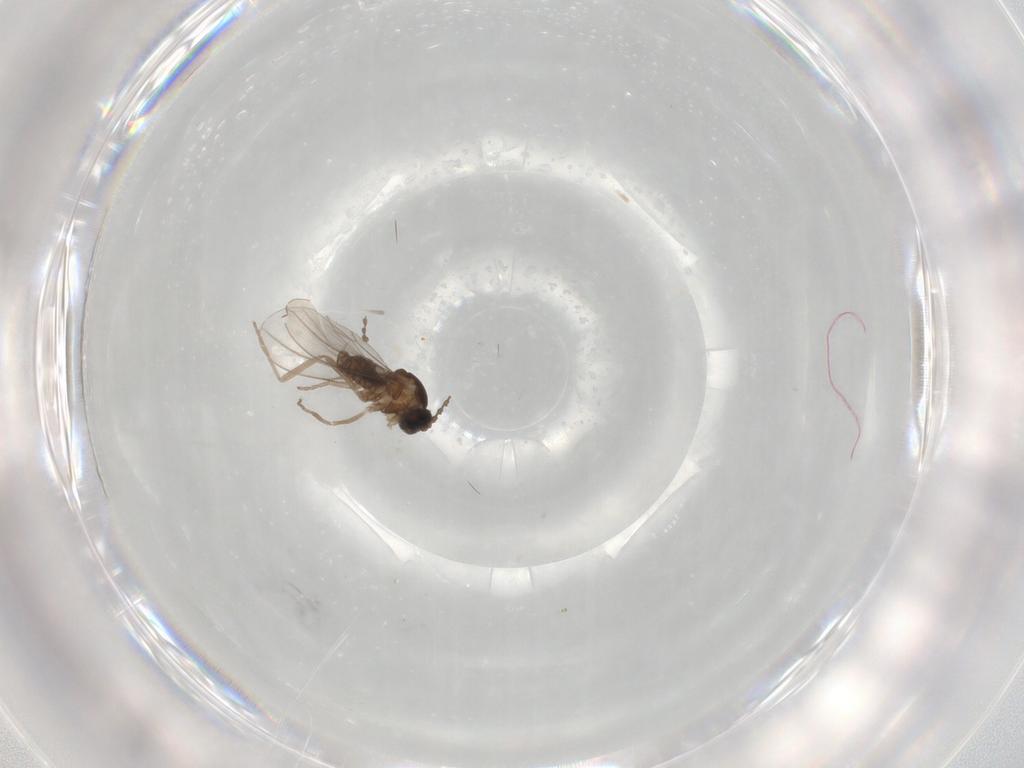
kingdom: Animalia
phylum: Arthropoda
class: Insecta
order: Diptera
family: Cecidomyiidae
